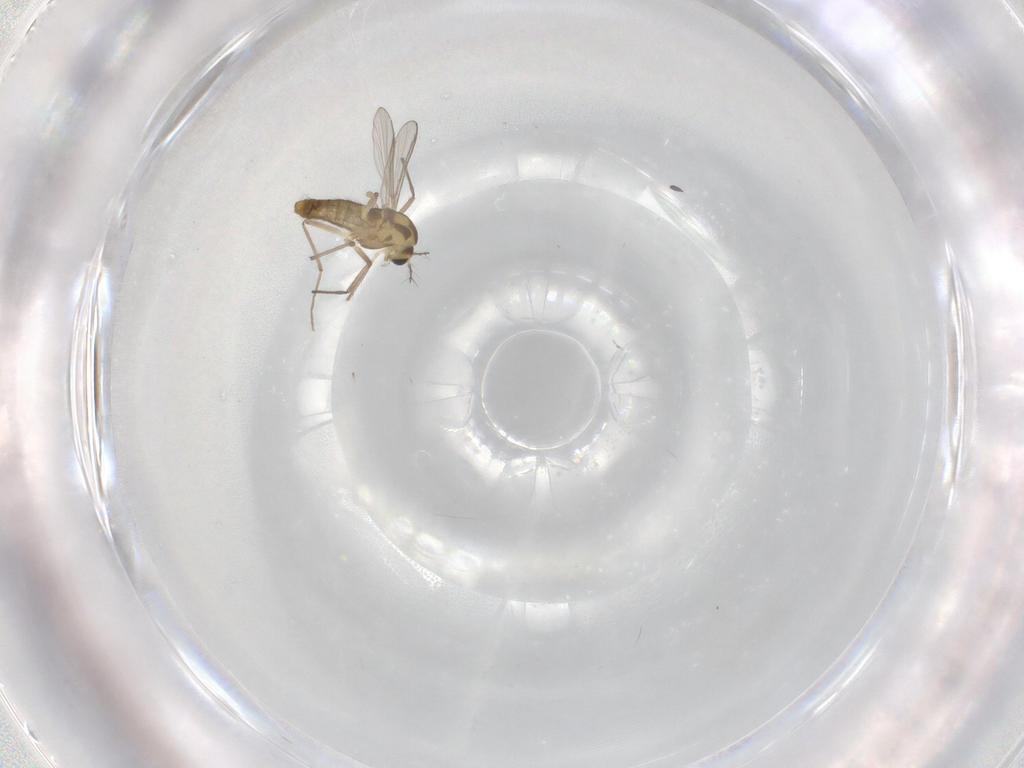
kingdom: Animalia
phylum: Arthropoda
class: Insecta
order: Diptera
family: Chironomidae
